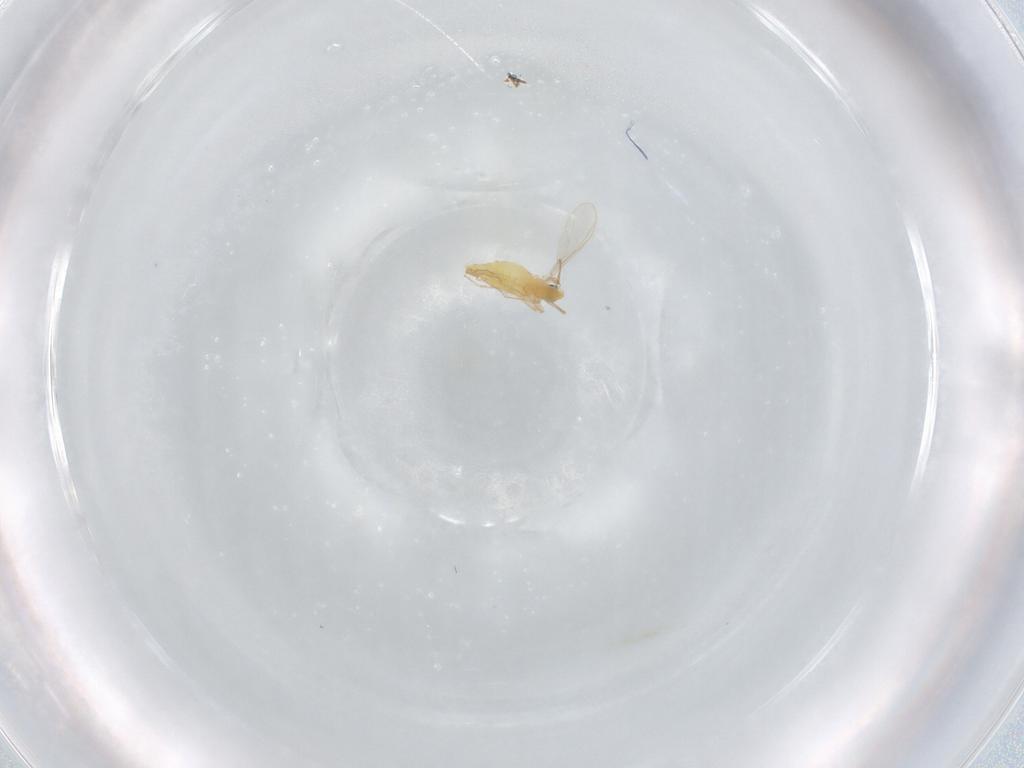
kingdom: Animalia
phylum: Arthropoda
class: Insecta
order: Diptera
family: Chironomidae
